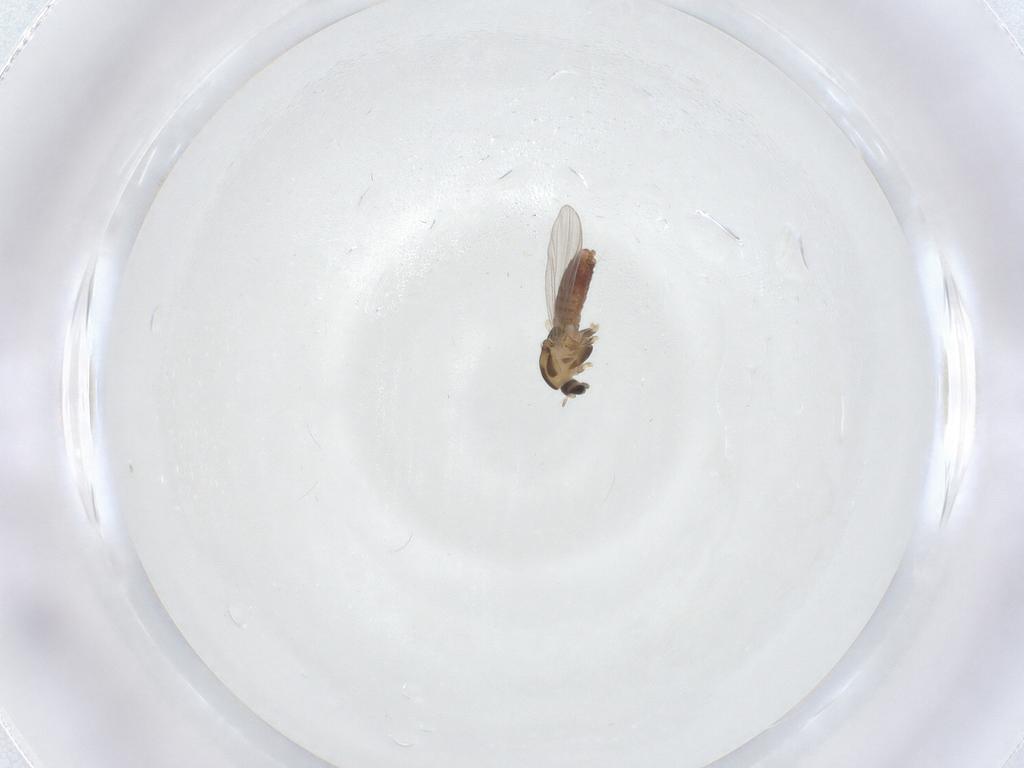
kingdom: Animalia
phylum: Arthropoda
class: Insecta
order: Diptera
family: Chironomidae
